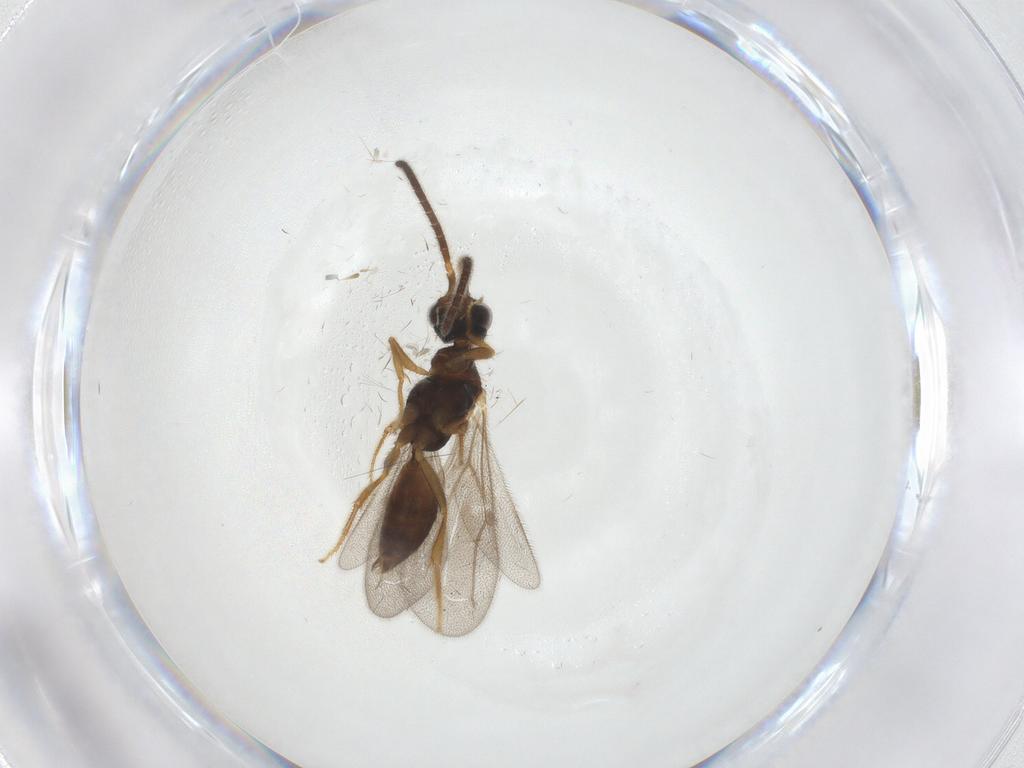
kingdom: Animalia
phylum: Arthropoda
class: Insecta
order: Hymenoptera
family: Bethylidae
